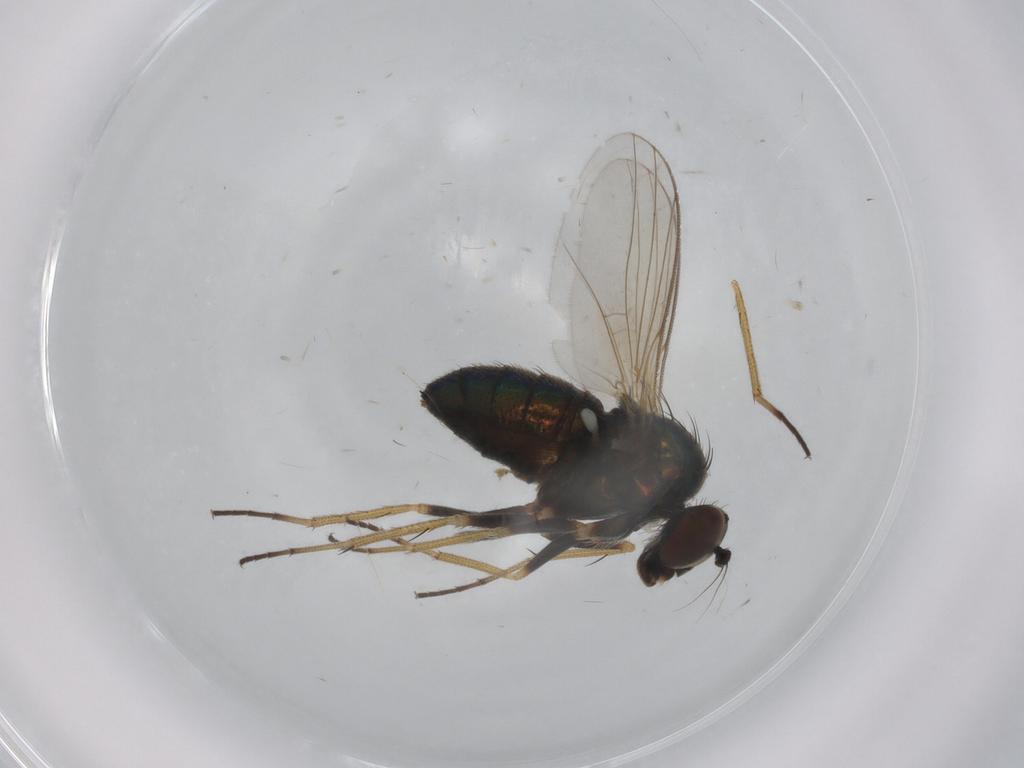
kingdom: Animalia
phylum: Arthropoda
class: Insecta
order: Diptera
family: Ceratopogonidae
